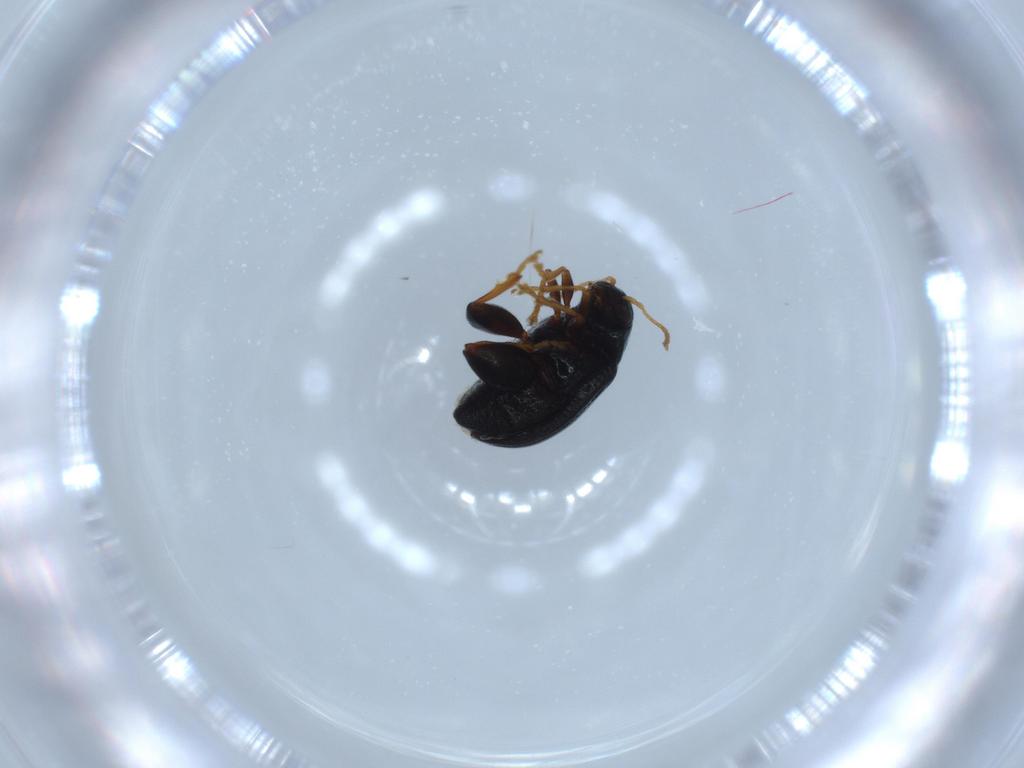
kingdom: Animalia
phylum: Arthropoda
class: Insecta
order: Coleoptera
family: Chrysomelidae
